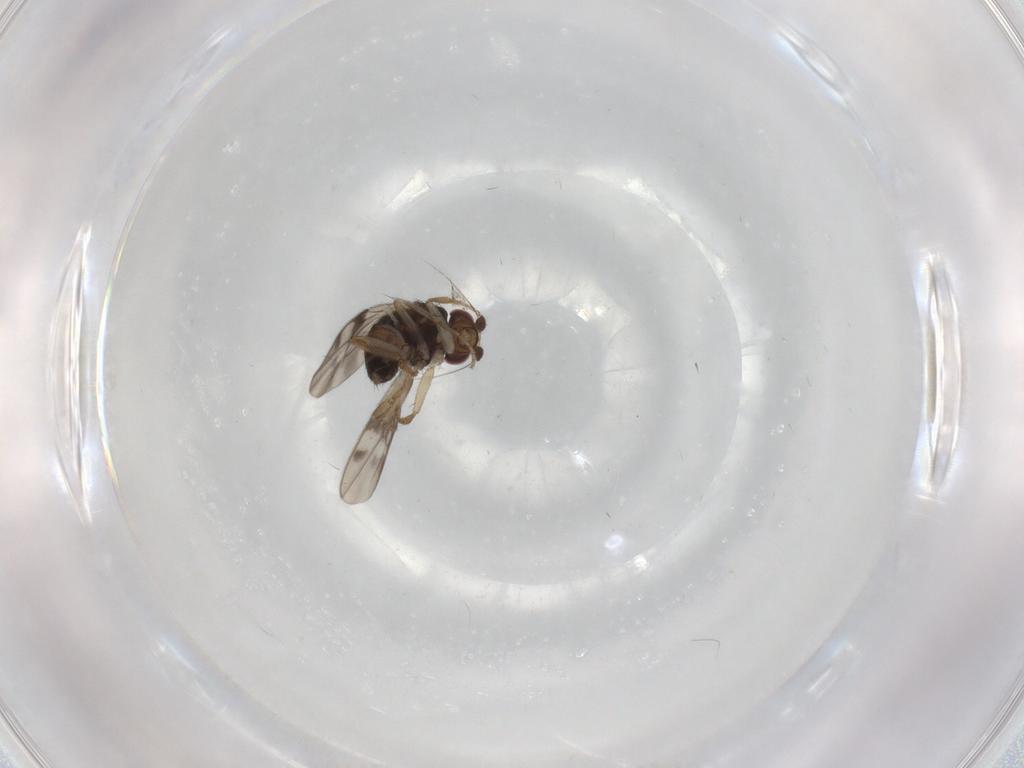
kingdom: Animalia
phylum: Arthropoda
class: Insecta
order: Diptera
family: Sphaeroceridae
